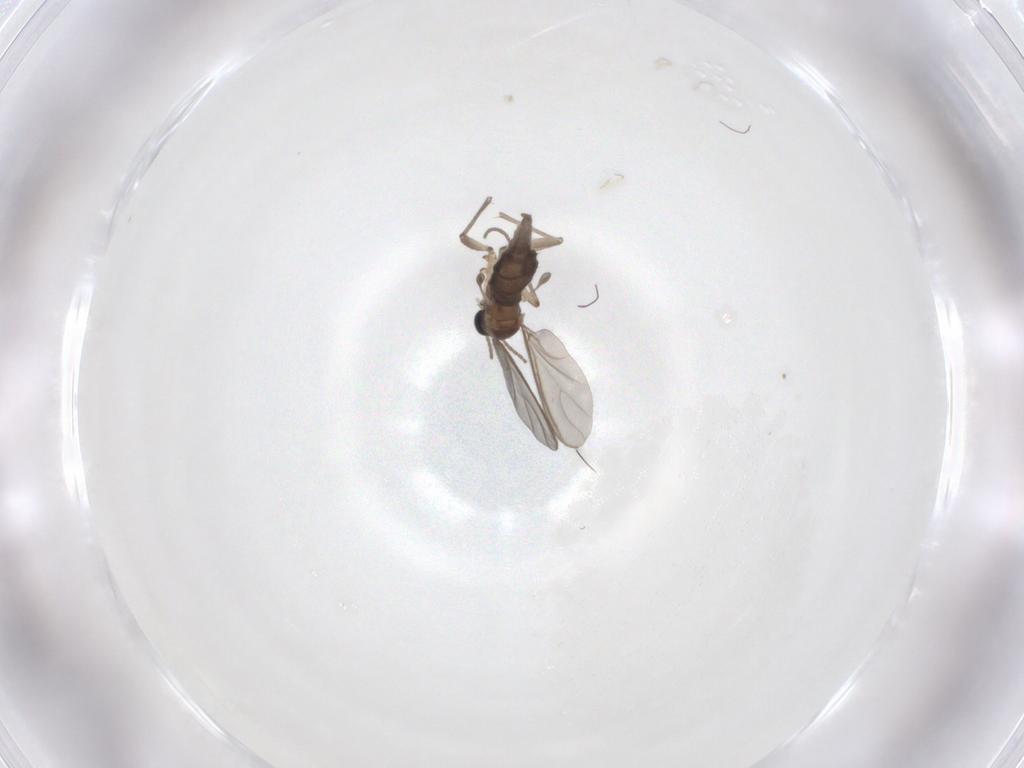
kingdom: Animalia
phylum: Arthropoda
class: Insecta
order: Diptera
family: Sciaridae
